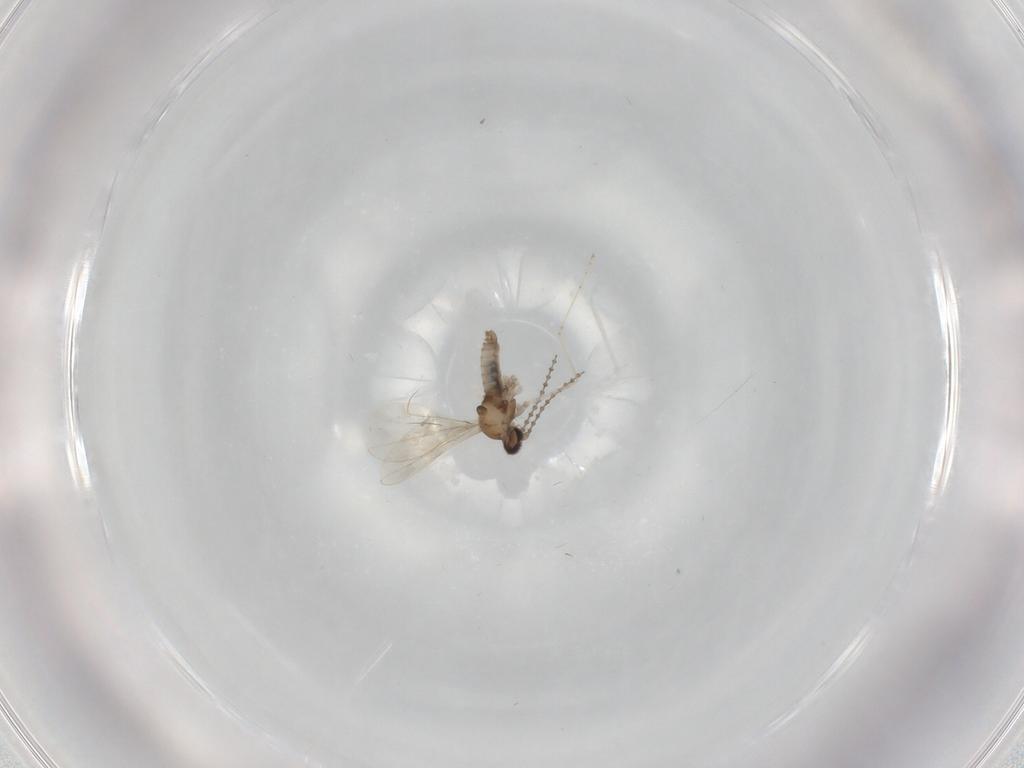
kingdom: Animalia
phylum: Arthropoda
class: Insecta
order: Diptera
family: Cecidomyiidae
